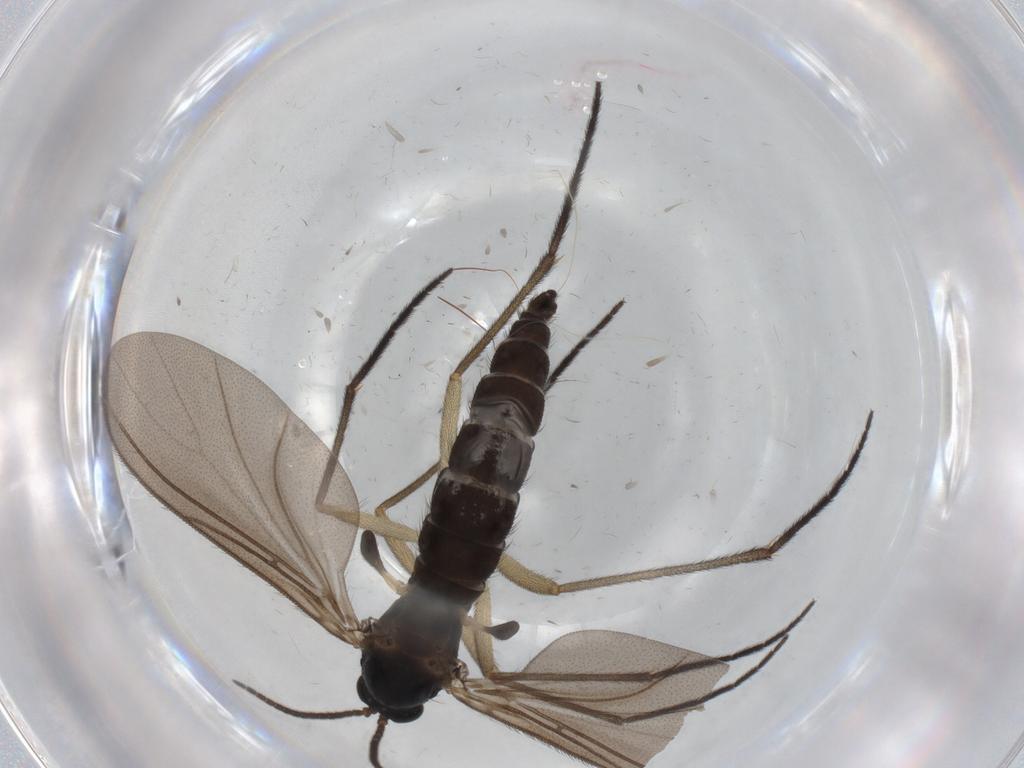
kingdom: Animalia
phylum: Arthropoda
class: Insecta
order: Diptera
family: Sciaridae
